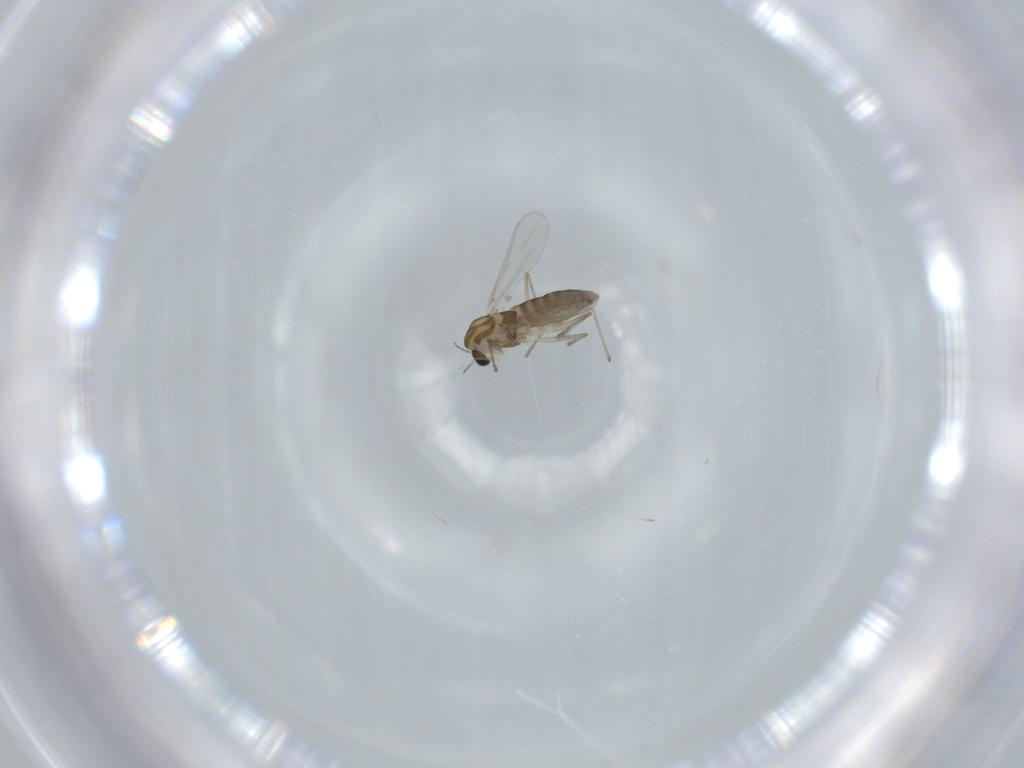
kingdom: Animalia
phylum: Arthropoda
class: Insecta
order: Diptera
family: Chironomidae
